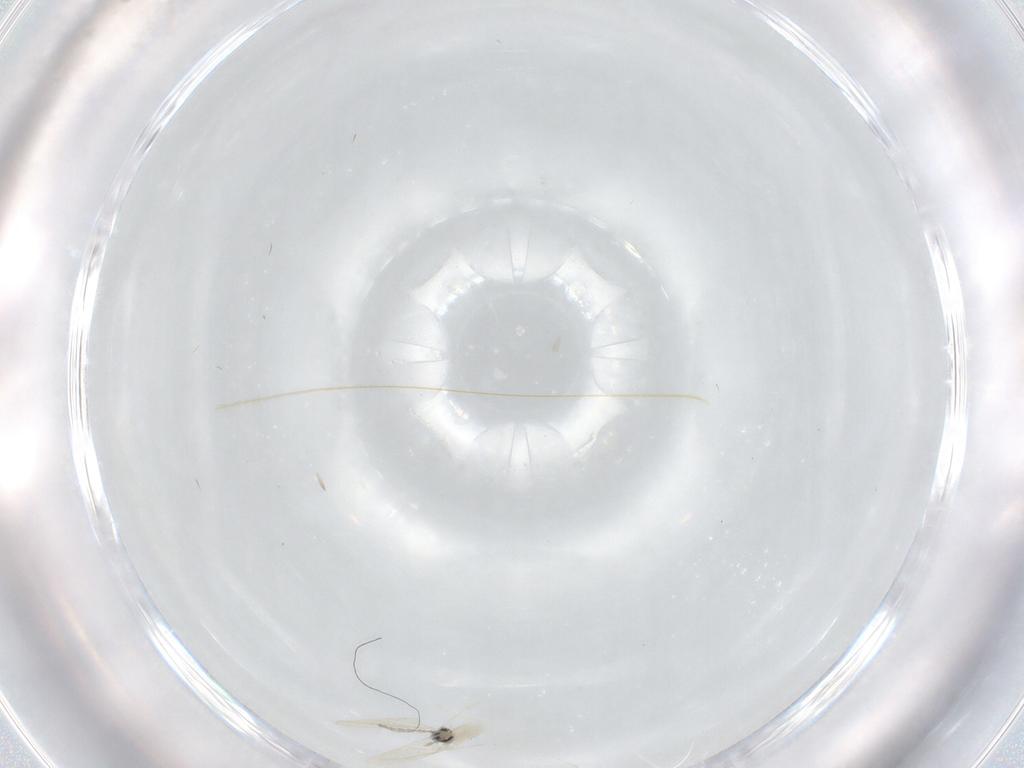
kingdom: Animalia
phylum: Arthropoda
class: Insecta
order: Diptera
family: Cecidomyiidae
